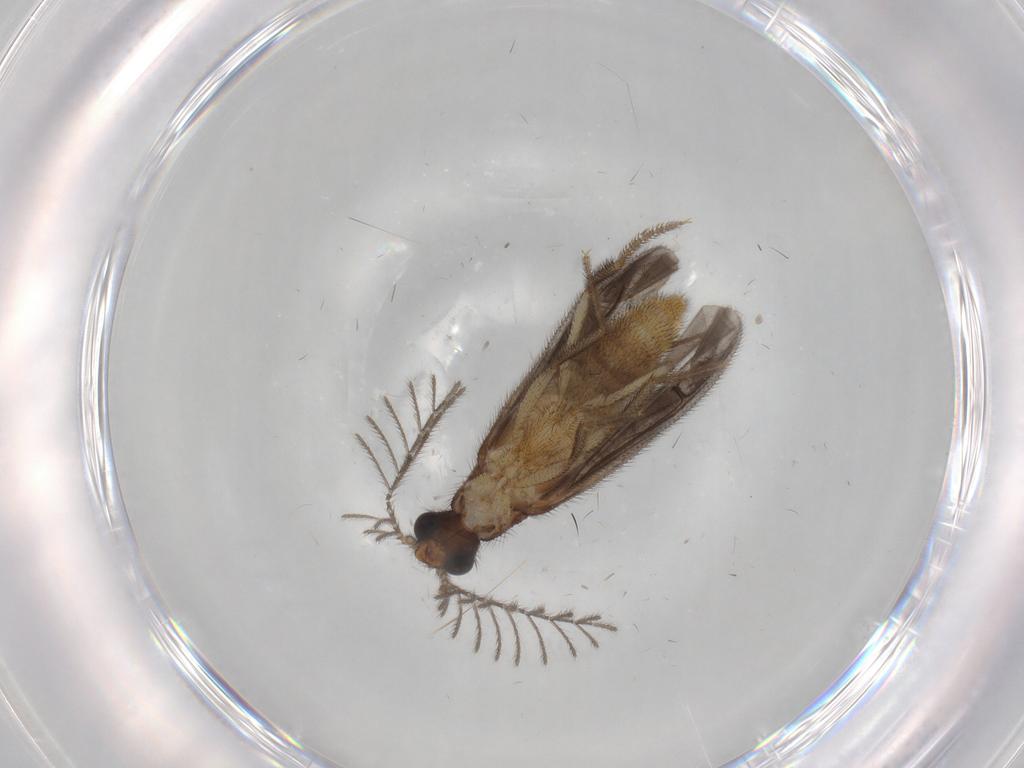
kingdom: Animalia
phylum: Arthropoda
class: Insecta
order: Coleoptera
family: Phengodidae
